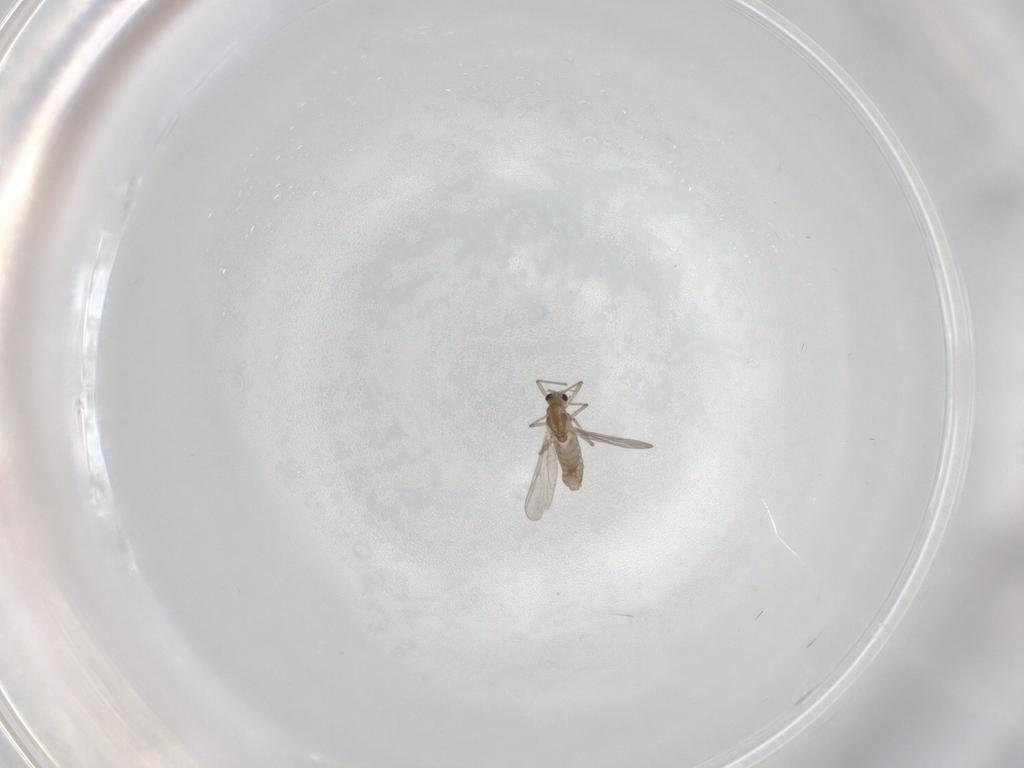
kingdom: Animalia
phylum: Arthropoda
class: Insecta
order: Diptera
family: Chironomidae
